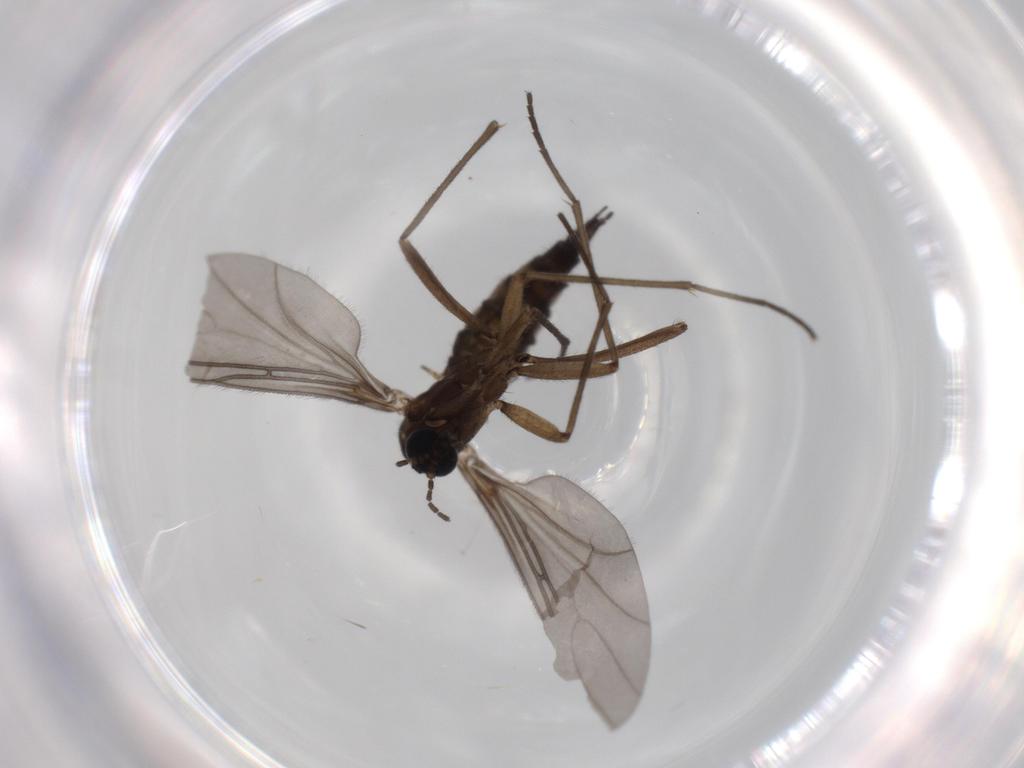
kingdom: Animalia
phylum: Arthropoda
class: Insecta
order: Diptera
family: Sciaridae
